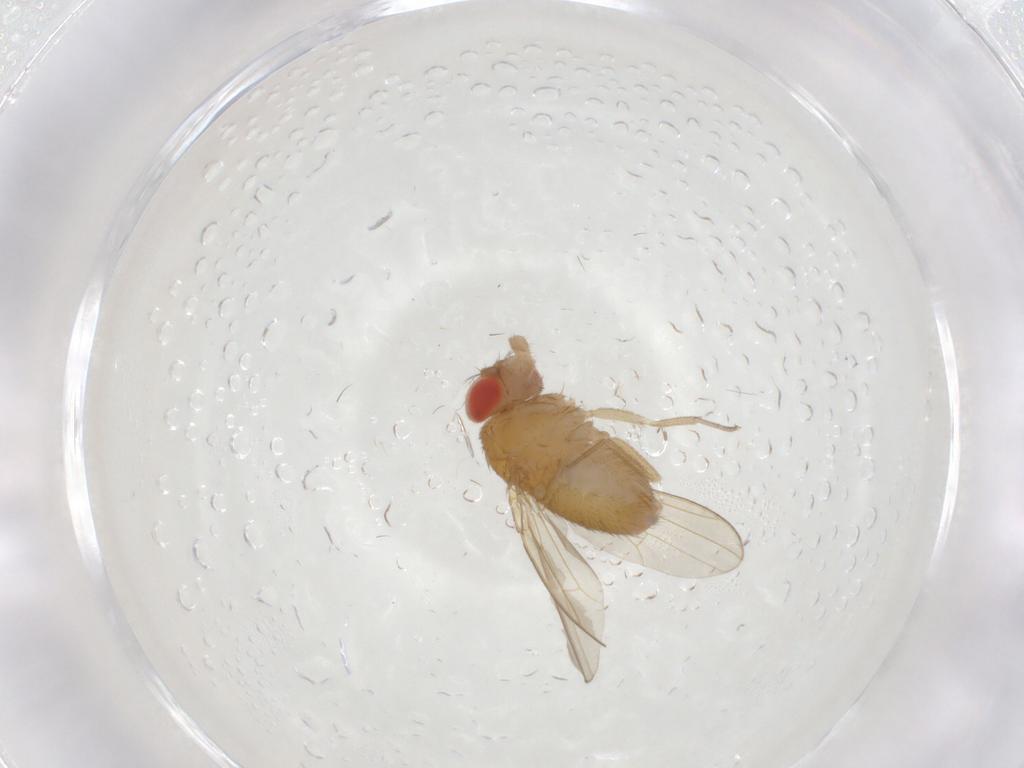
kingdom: Animalia
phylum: Arthropoda
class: Insecta
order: Diptera
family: Drosophilidae
